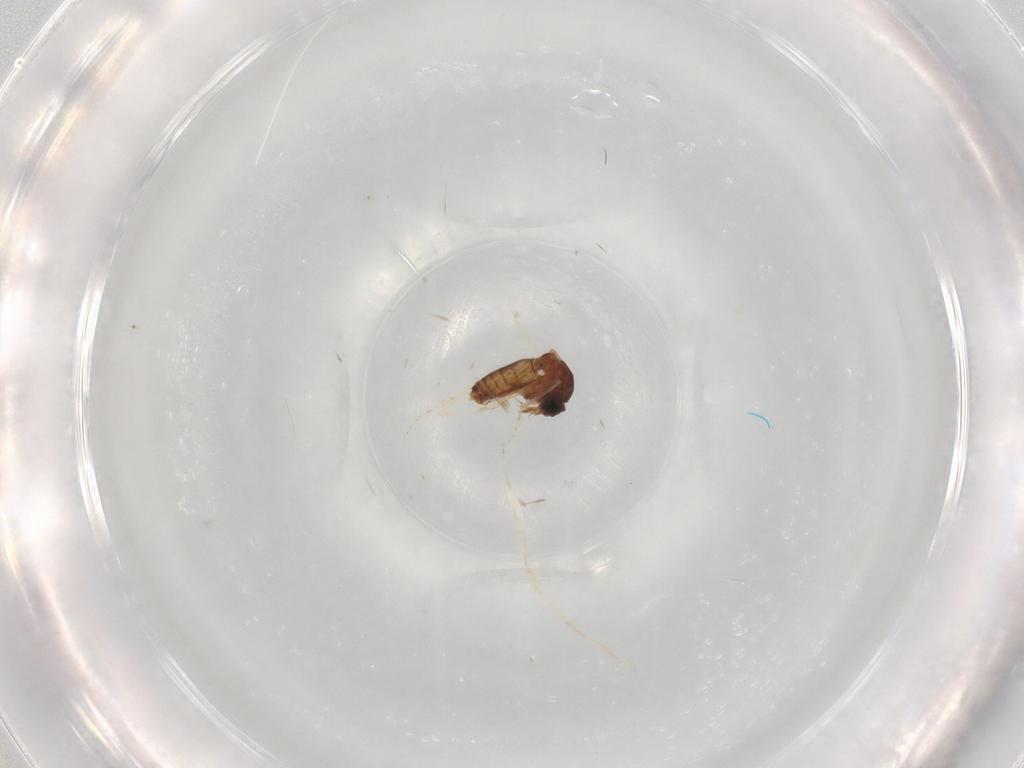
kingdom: Animalia
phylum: Arthropoda
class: Insecta
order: Diptera
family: Ceratopogonidae
